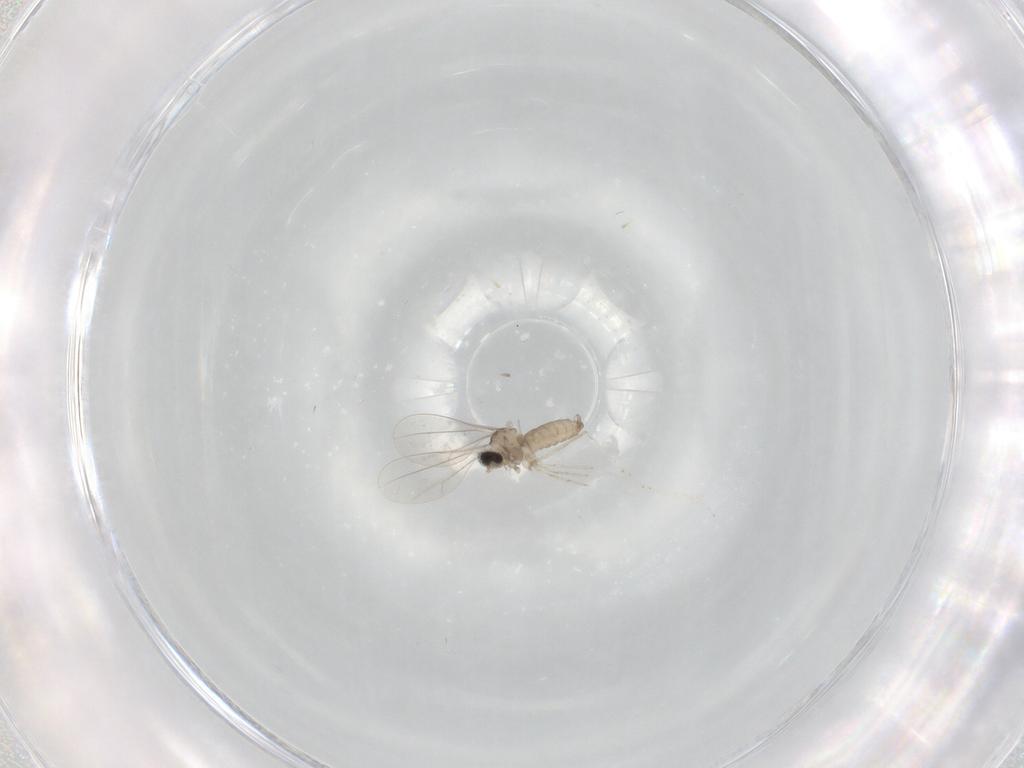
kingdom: Animalia
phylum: Arthropoda
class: Insecta
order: Diptera
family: Cecidomyiidae
